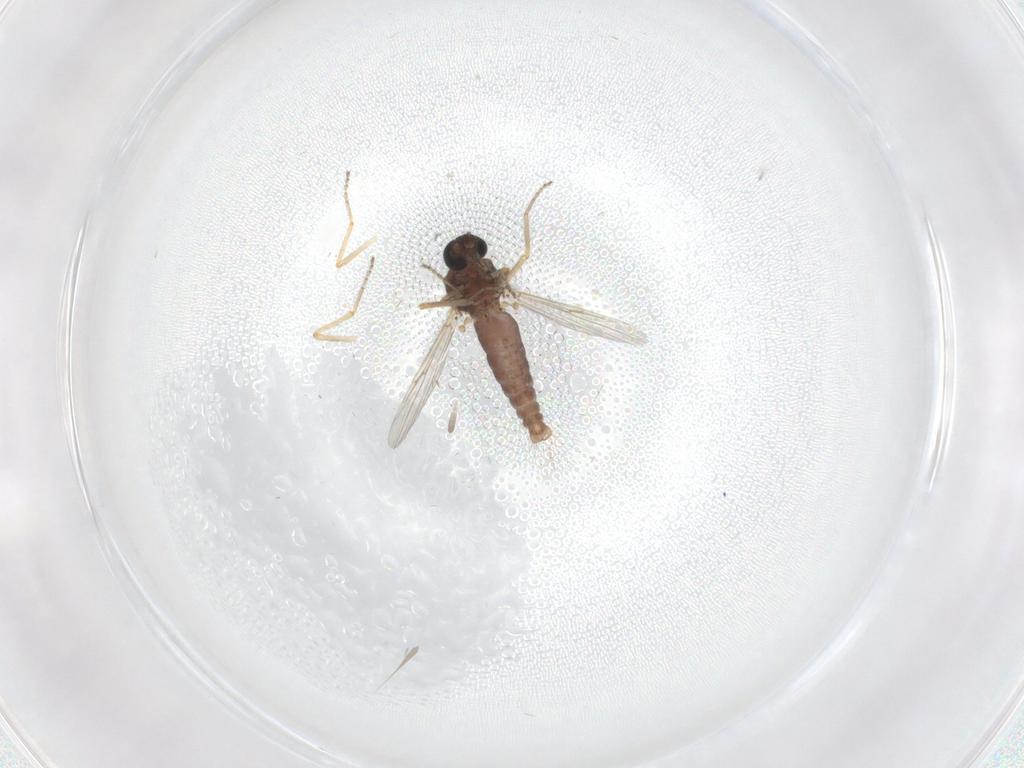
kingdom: Animalia
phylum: Arthropoda
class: Insecta
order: Diptera
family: Ceratopogonidae
